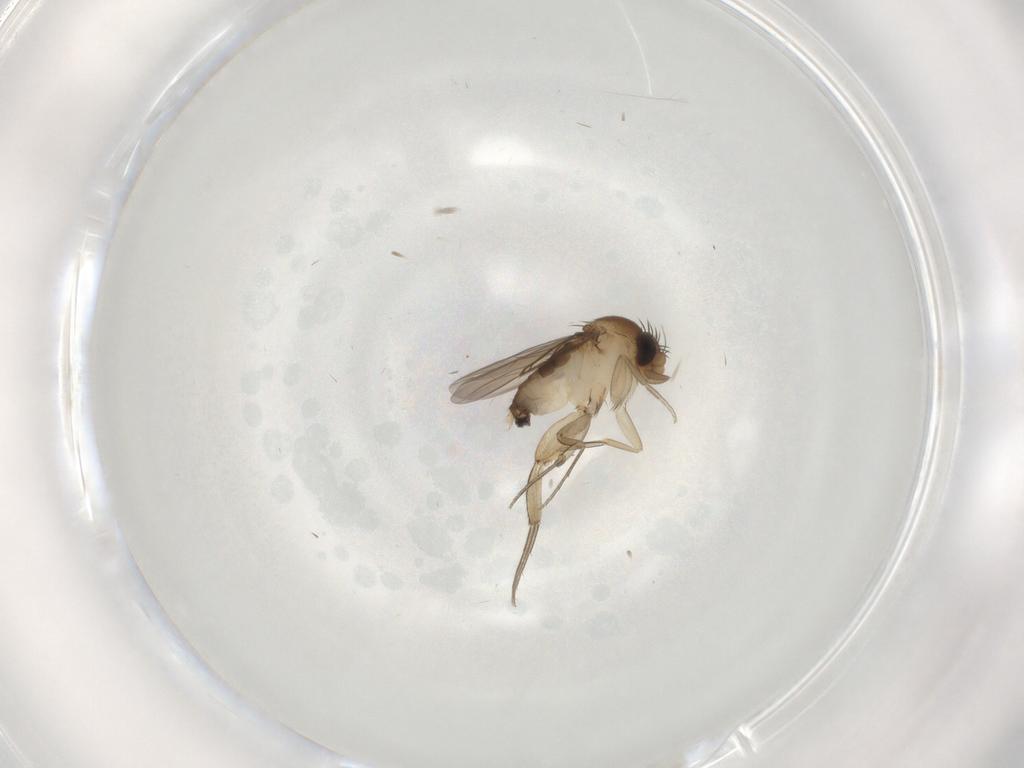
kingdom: Animalia
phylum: Arthropoda
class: Insecta
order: Diptera
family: Phoridae
